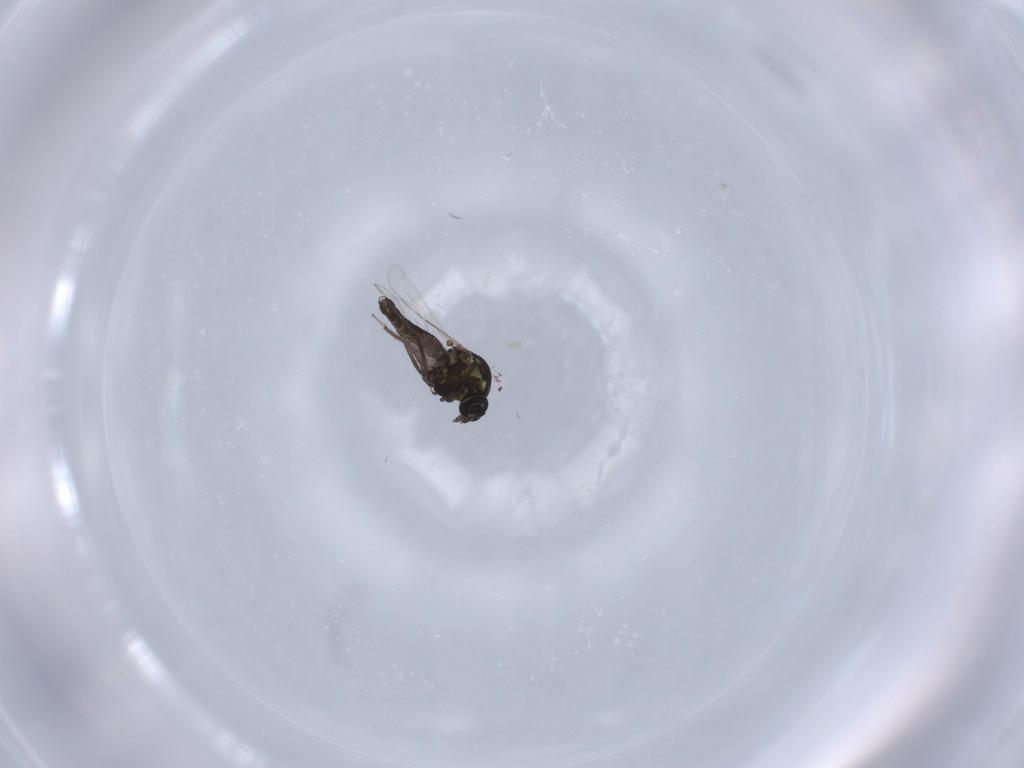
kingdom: Animalia
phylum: Arthropoda
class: Insecta
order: Diptera
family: Ceratopogonidae
